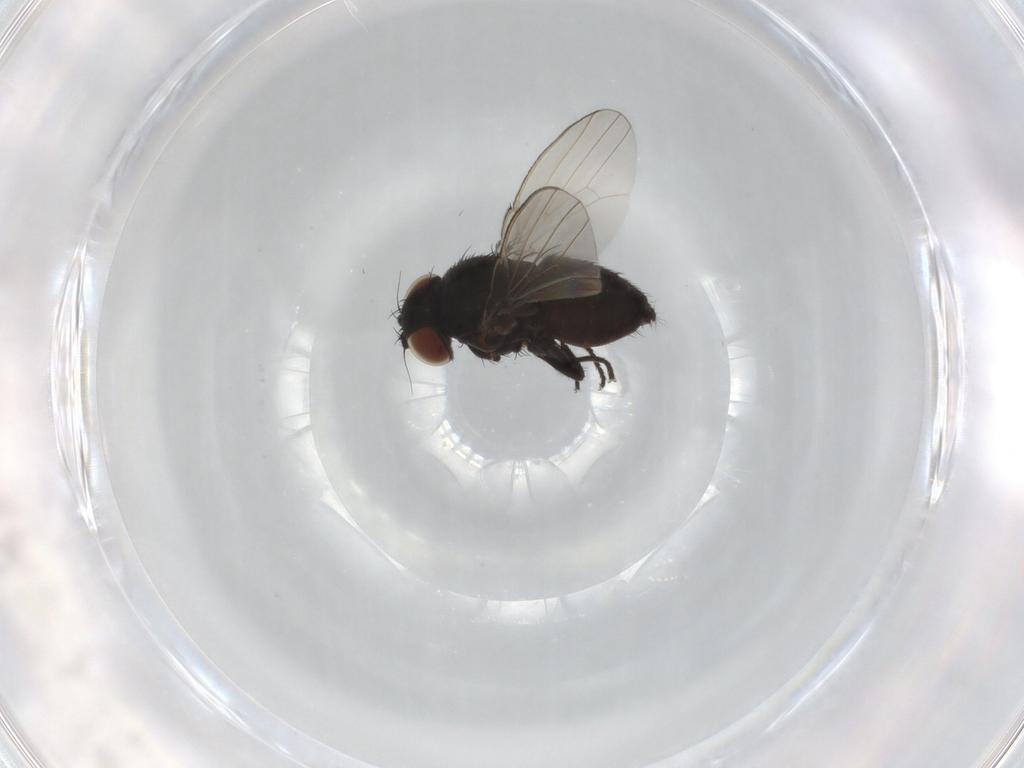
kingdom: Animalia
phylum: Arthropoda
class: Insecta
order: Diptera
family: Milichiidae
